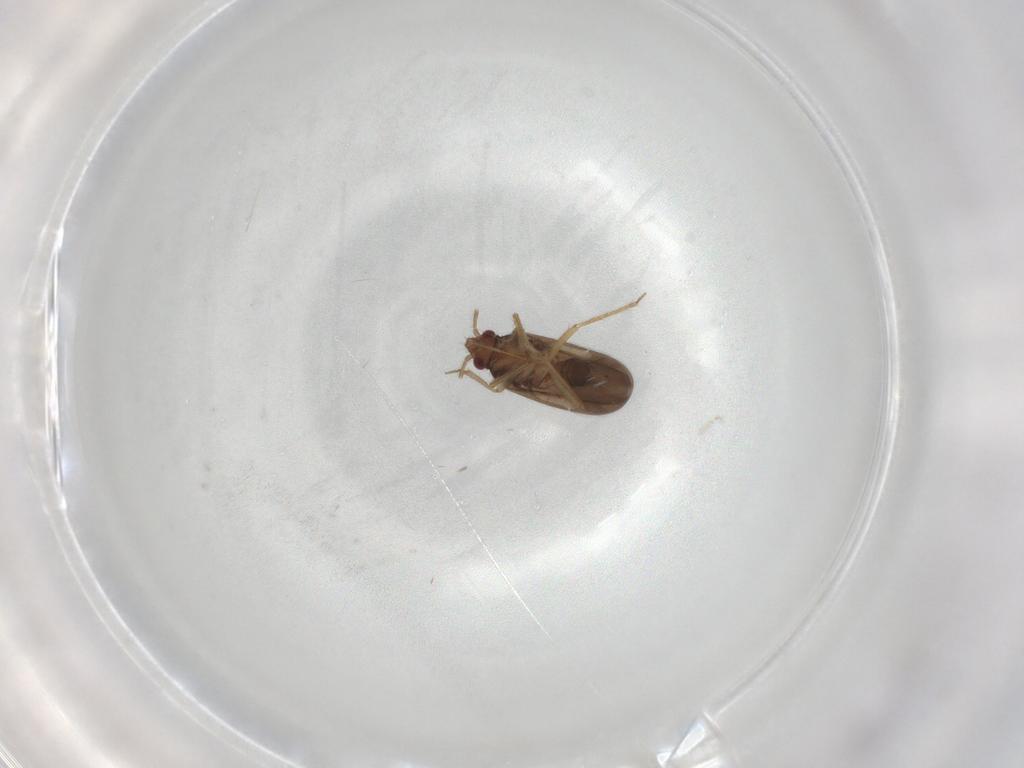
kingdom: Animalia
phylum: Arthropoda
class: Insecta
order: Hemiptera
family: Ceratocombidae
